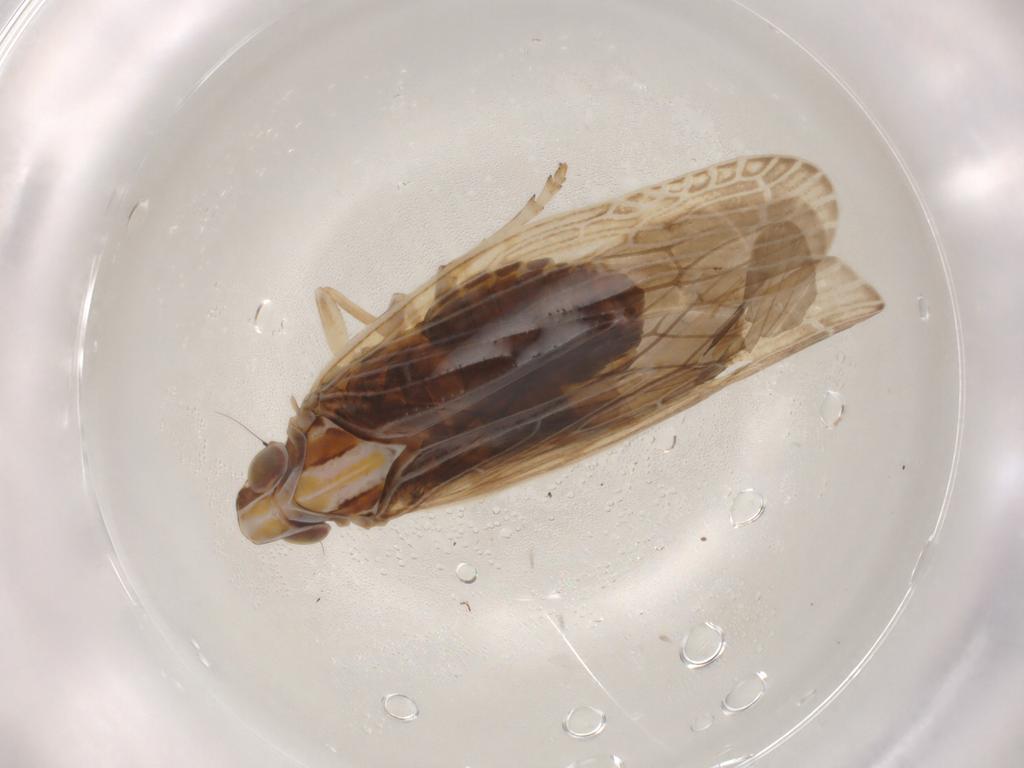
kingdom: Animalia
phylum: Arthropoda
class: Insecta
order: Hemiptera
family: Achilidae
